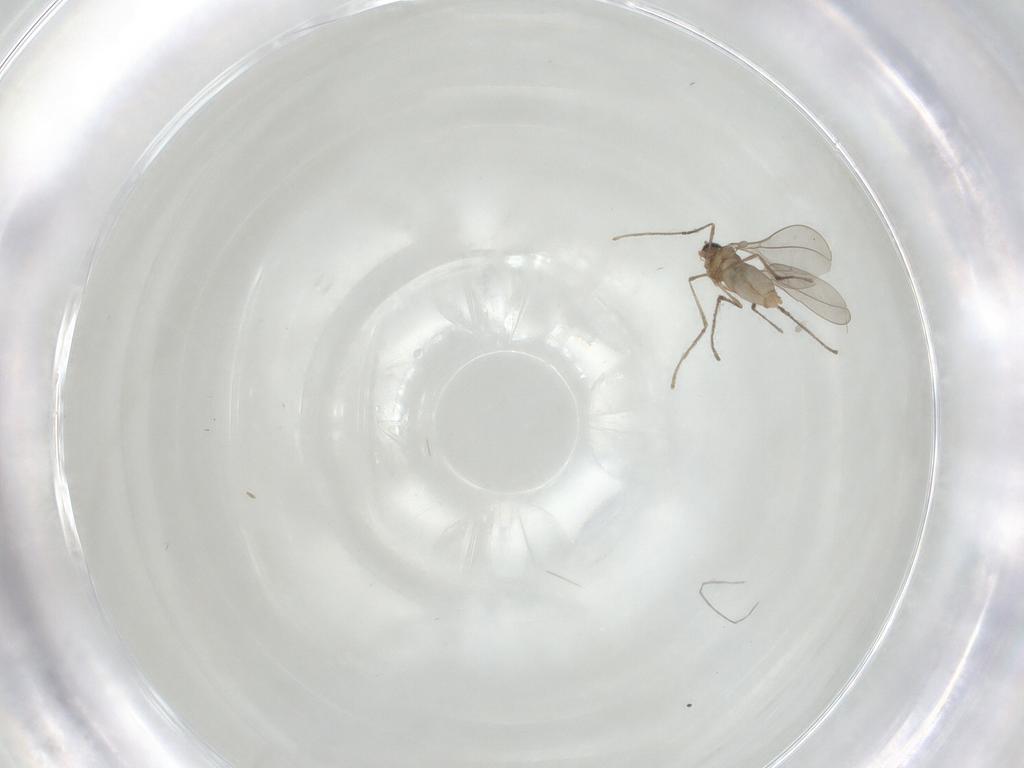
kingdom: Animalia
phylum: Arthropoda
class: Insecta
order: Diptera
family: Cecidomyiidae
